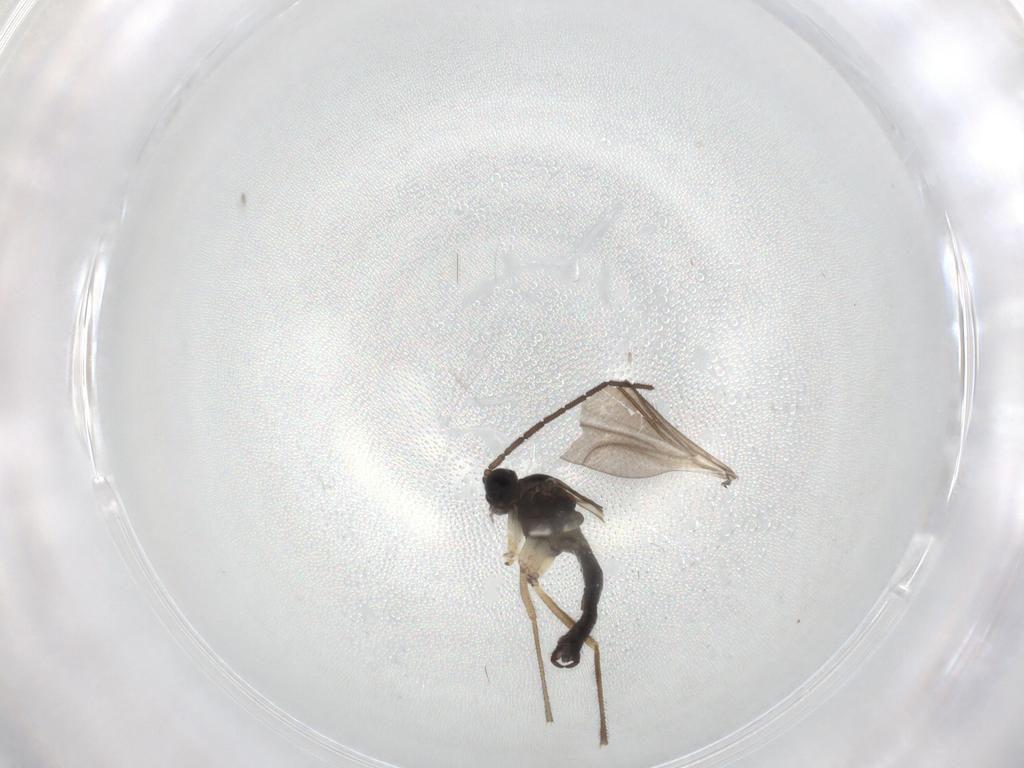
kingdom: Animalia
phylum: Arthropoda
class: Insecta
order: Diptera
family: Sciaridae
